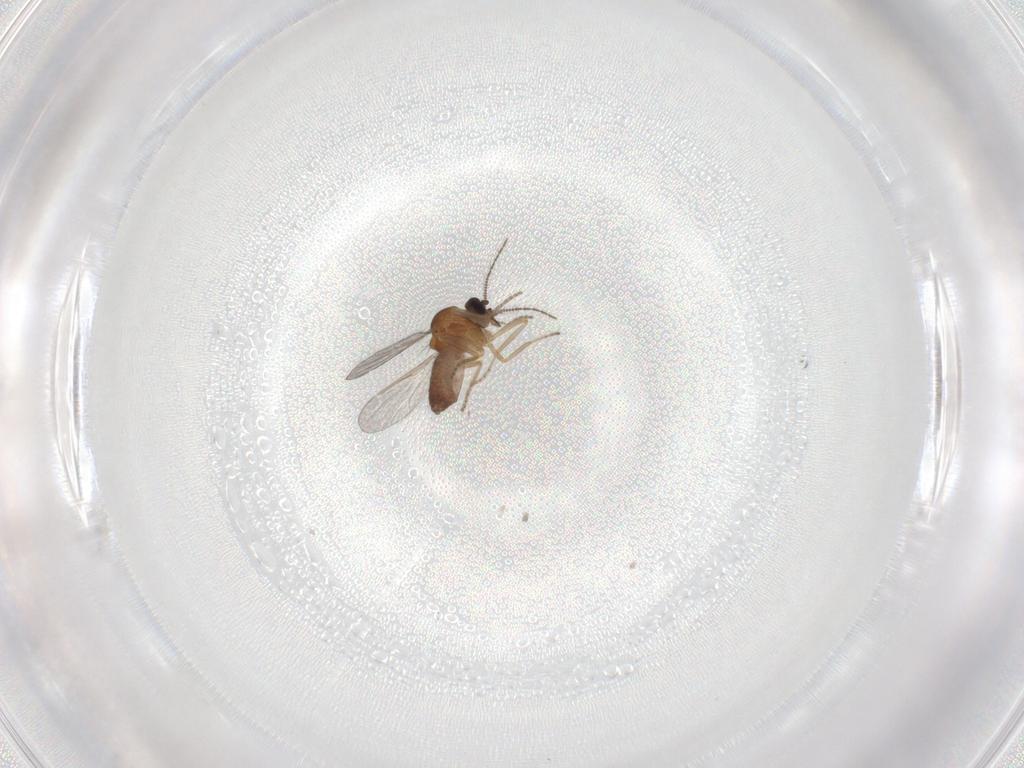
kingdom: Animalia
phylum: Arthropoda
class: Insecta
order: Diptera
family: Ceratopogonidae
